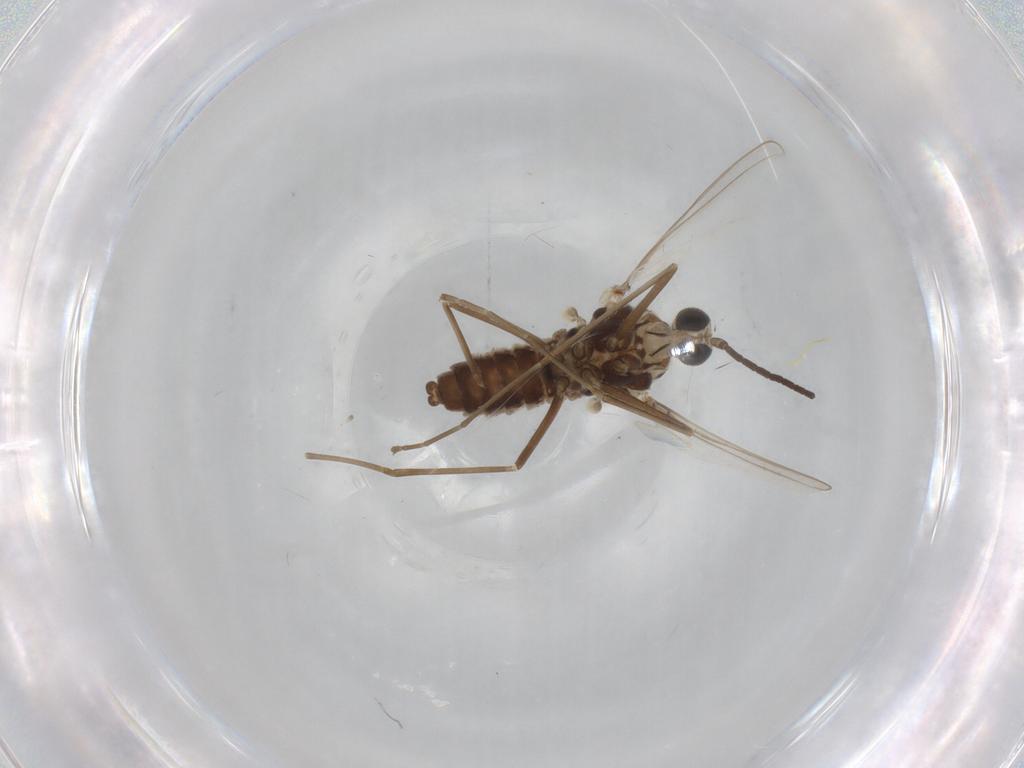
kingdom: Animalia
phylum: Arthropoda
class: Insecta
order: Diptera
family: Cecidomyiidae
